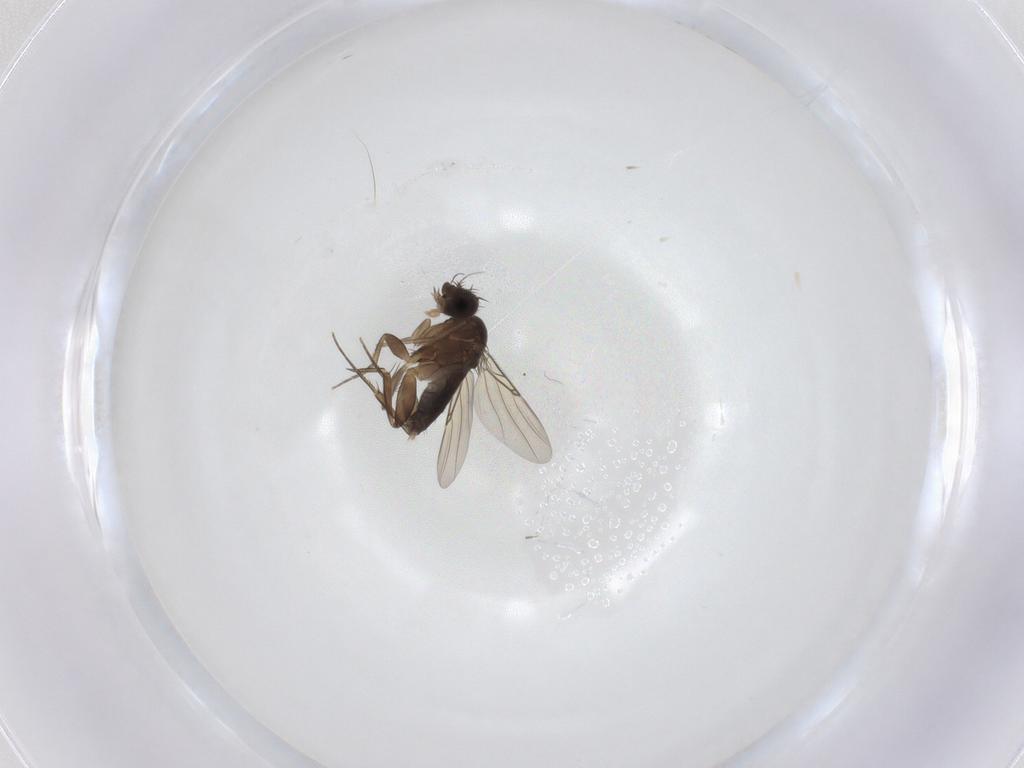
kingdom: Animalia
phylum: Arthropoda
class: Insecta
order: Diptera
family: Phoridae
